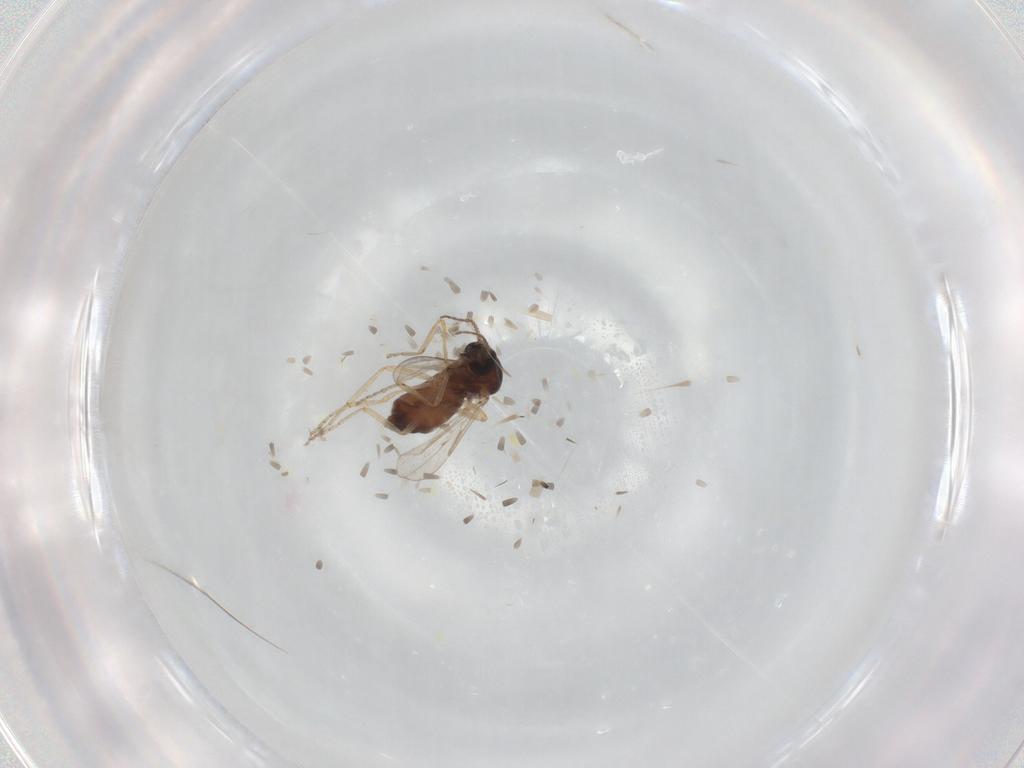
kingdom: Animalia
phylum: Arthropoda
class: Insecta
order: Diptera
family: Ceratopogonidae
